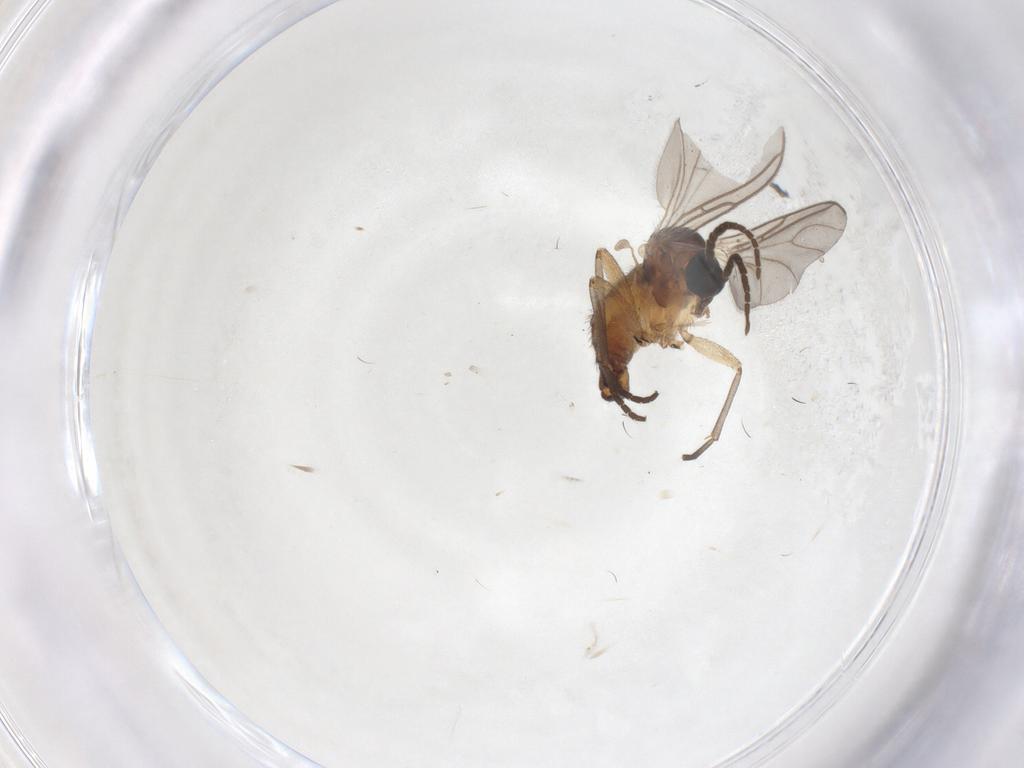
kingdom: Animalia
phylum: Arthropoda
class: Insecta
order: Diptera
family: Sciaridae
